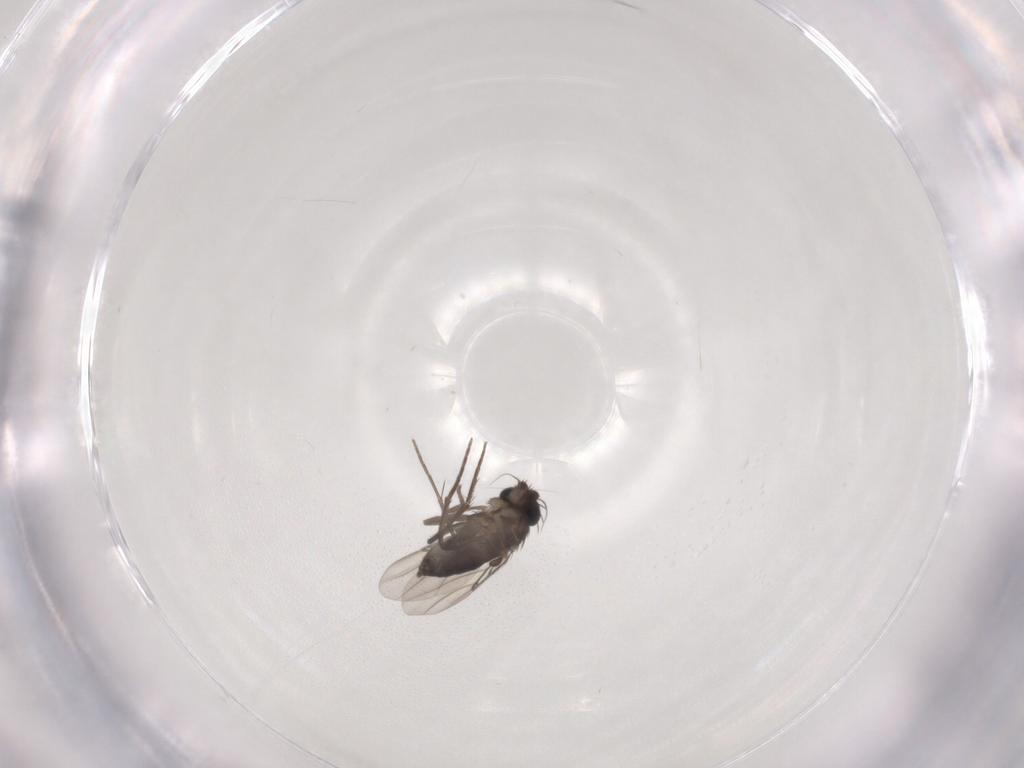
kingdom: Animalia
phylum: Arthropoda
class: Insecta
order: Diptera
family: Phoridae
